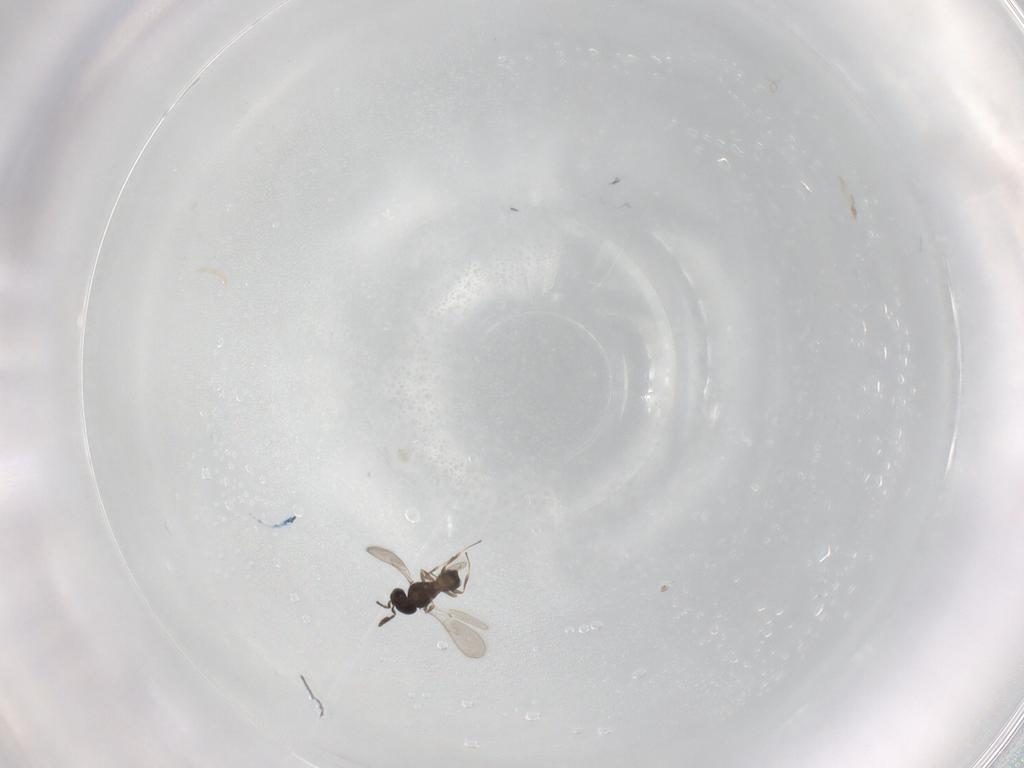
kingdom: Animalia
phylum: Arthropoda
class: Insecta
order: Hymenoptera
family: Scelionidae
